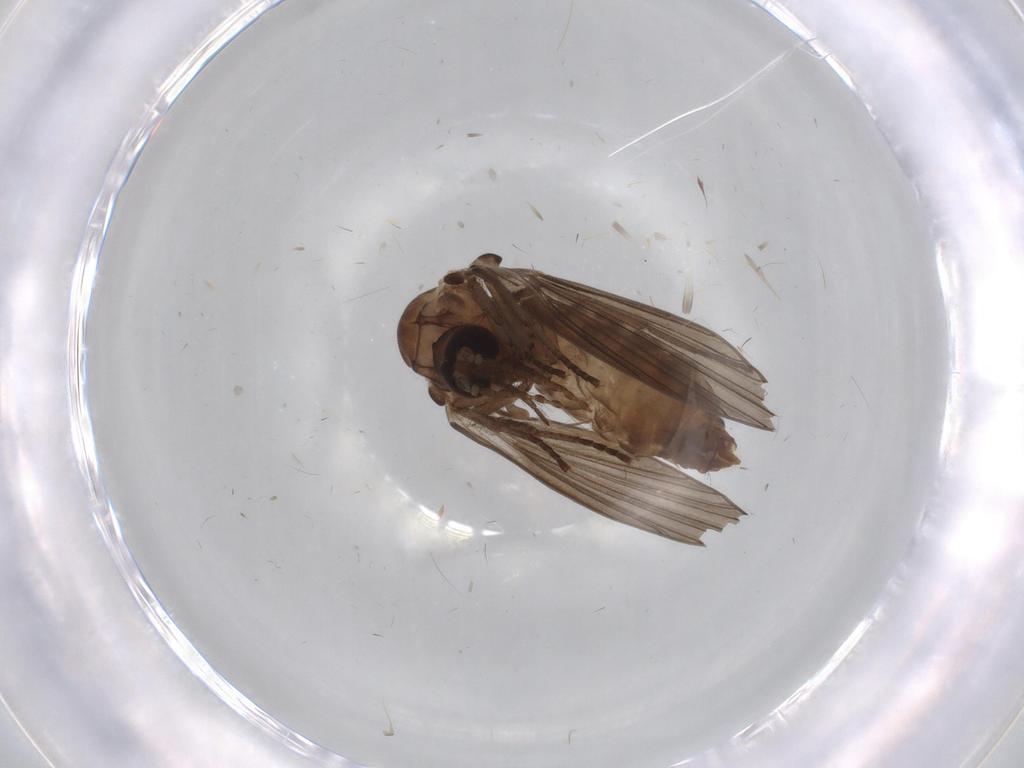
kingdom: Animalia
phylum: Arthropoda
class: Insecta
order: Diptera
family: Psychodidae
